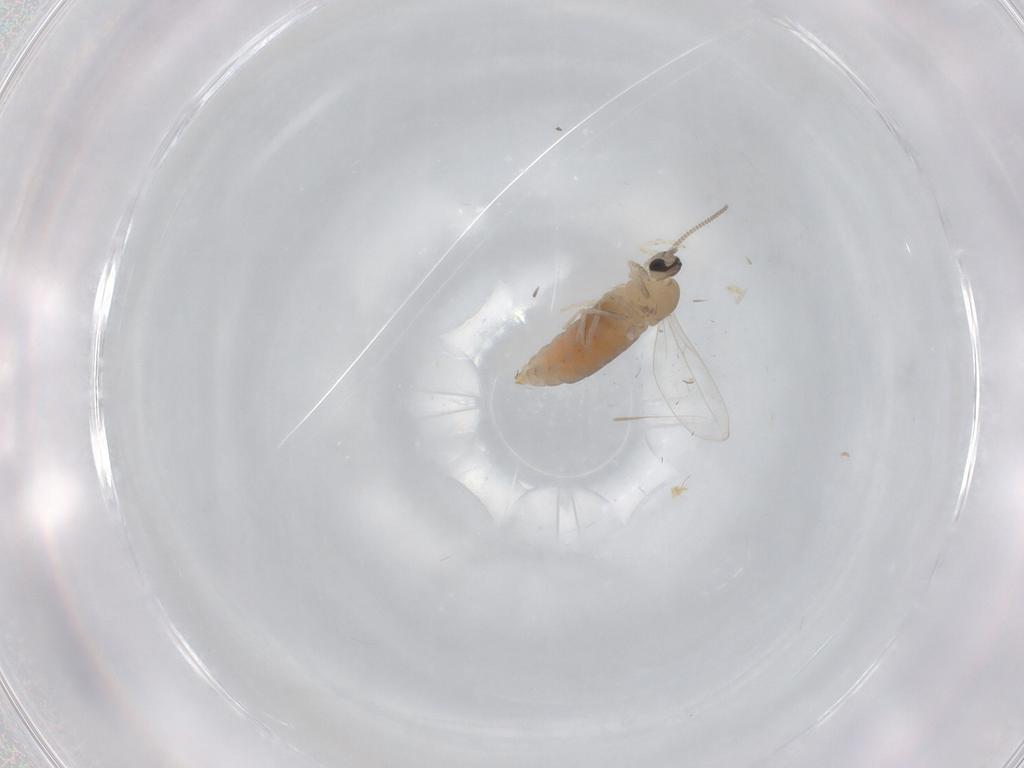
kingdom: Animalia
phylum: Arthropoda
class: Insecta
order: Diptera
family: Cecidomyiidae
